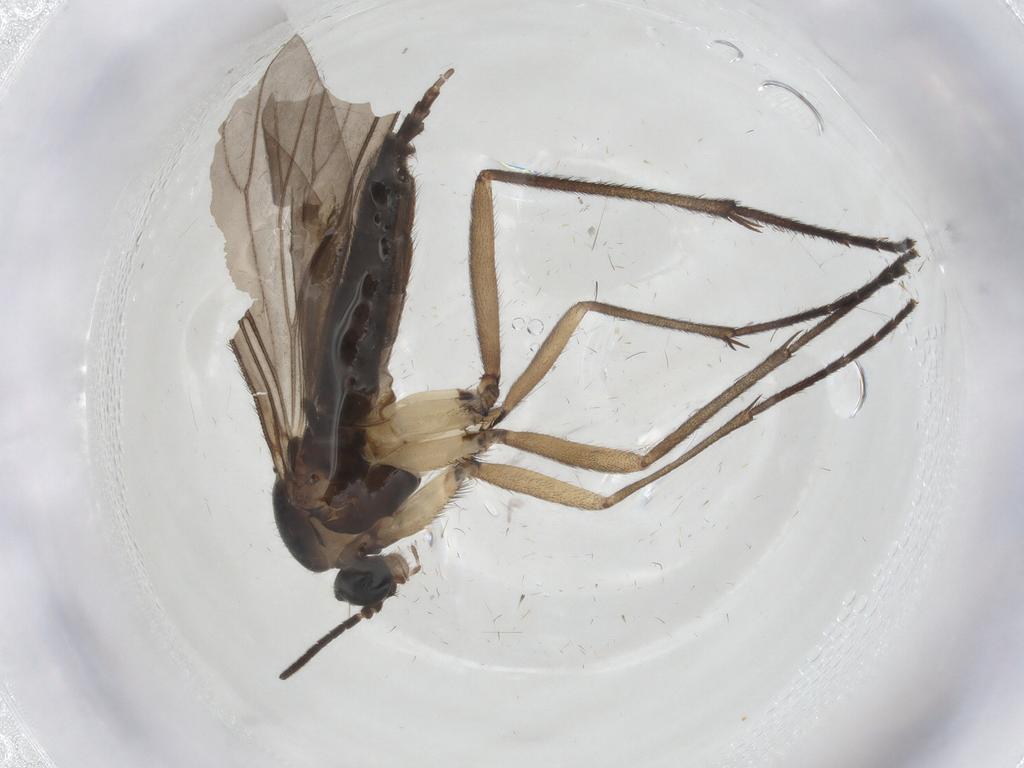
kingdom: Animalia
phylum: Arthropoda
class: Insecta
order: Diptera
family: Sciaridae
